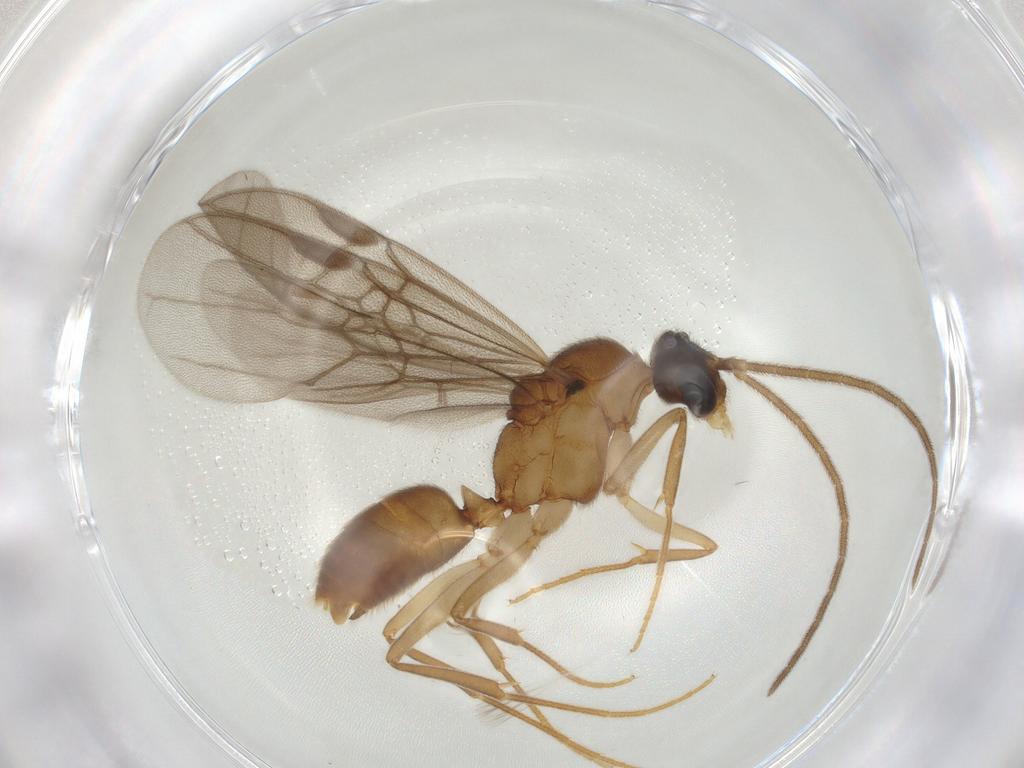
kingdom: Animalia
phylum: Arthropoda
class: Insecta
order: Hymenoptera
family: Formicidae
